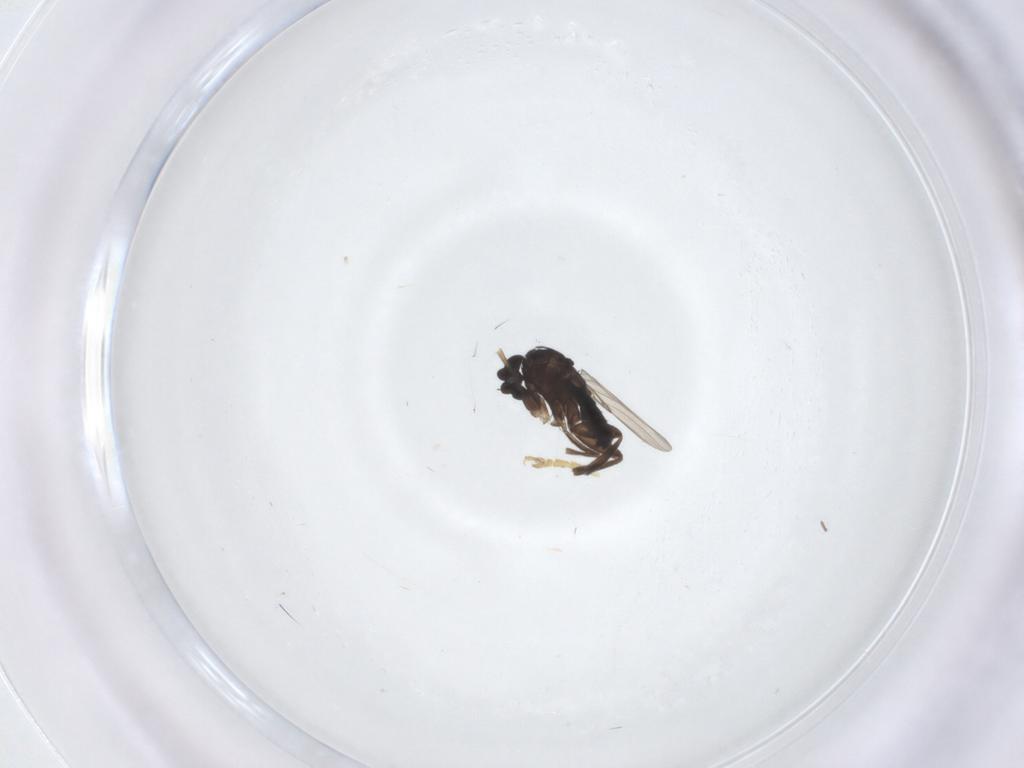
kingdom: Animalia
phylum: Arthropoda
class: Insecta
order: Diptera
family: Phoridae
